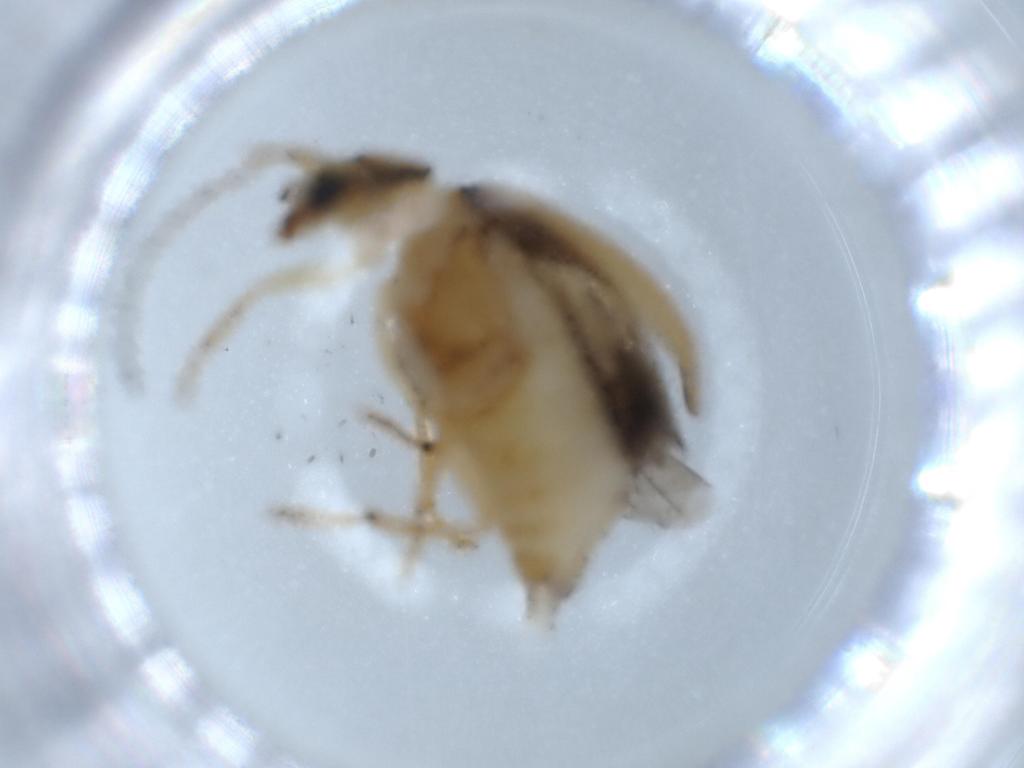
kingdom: Animalia
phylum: Arthropoda
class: Insecta
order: Coleoptera
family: Chrysomelidae
